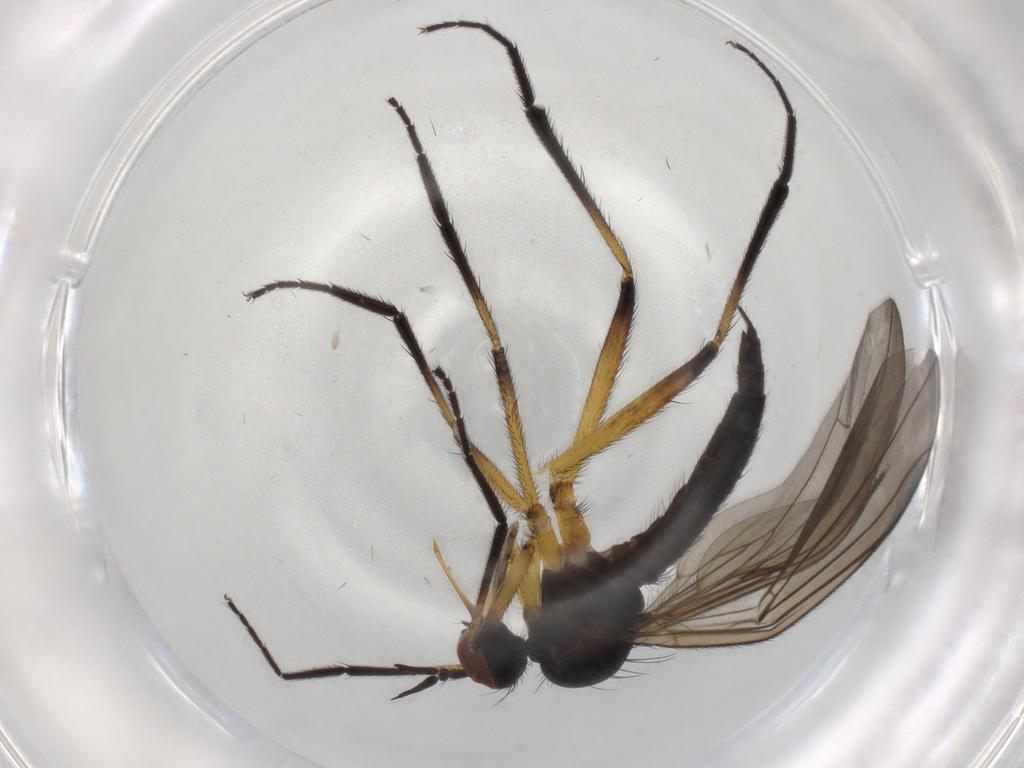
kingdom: Animalia
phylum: Arthropoda
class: Insecta
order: Diptera
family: Empididae
